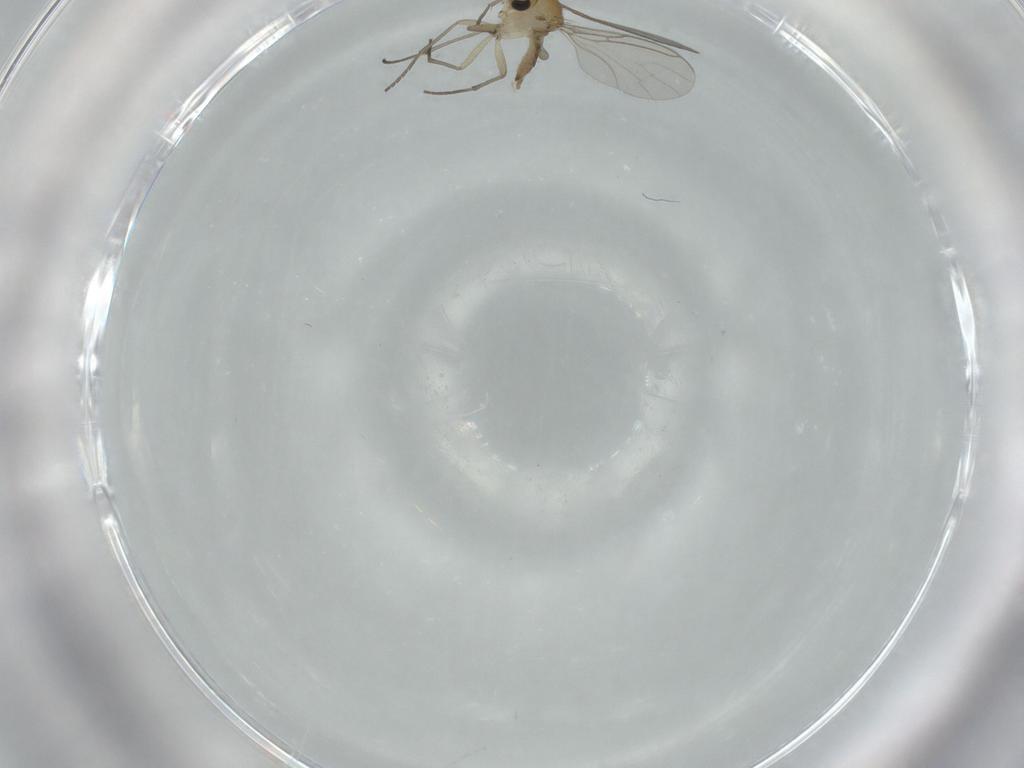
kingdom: Animalia
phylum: Arthropoda
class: Insecta
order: Diptera
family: Sciaridae
